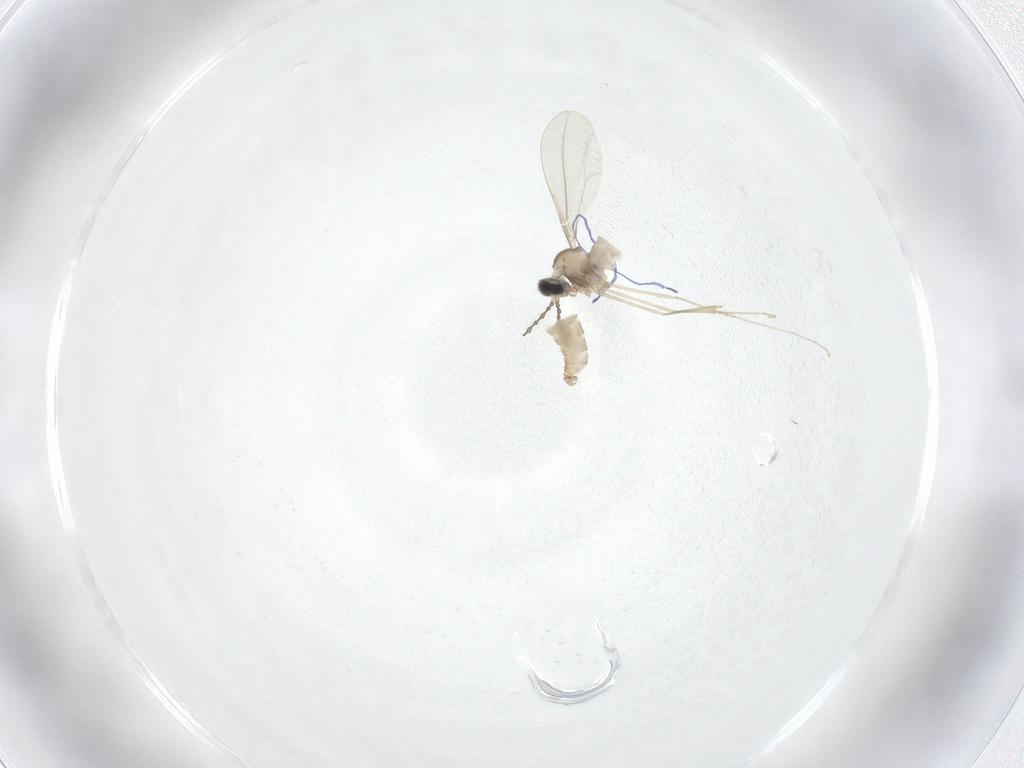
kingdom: Animalia
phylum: Arthropoda
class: Insecta
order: Diptera
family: Cecidomyiidae
